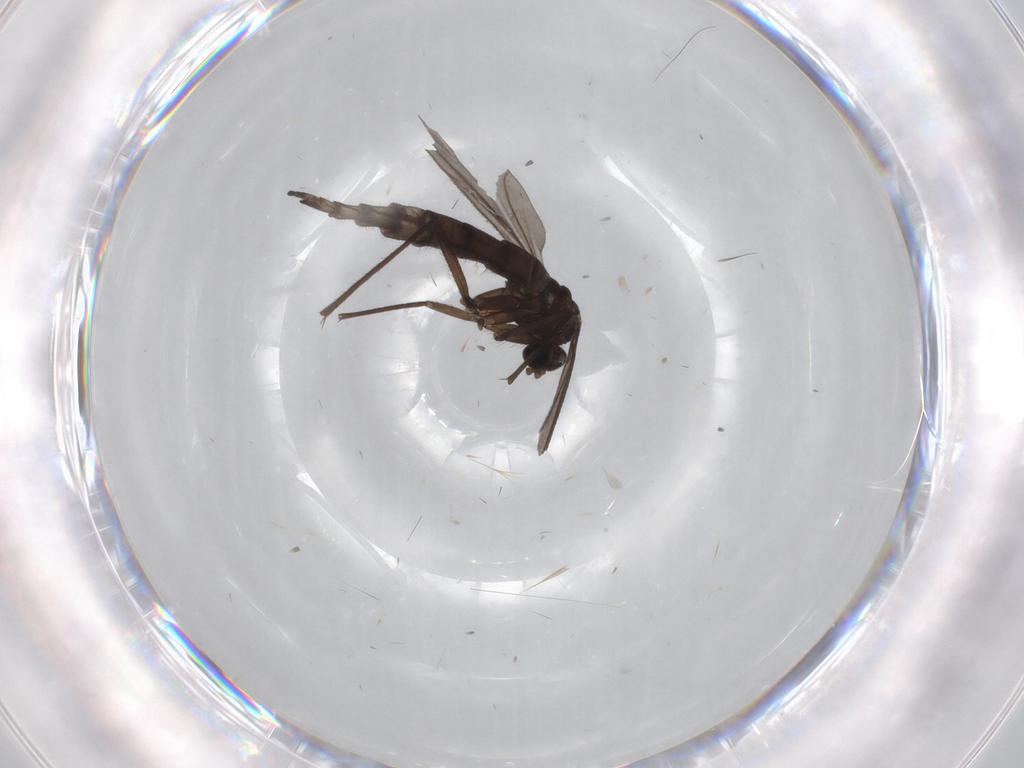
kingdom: Animalia
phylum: Arthropoda
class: Insecta
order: Diptera
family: Sciaridae
